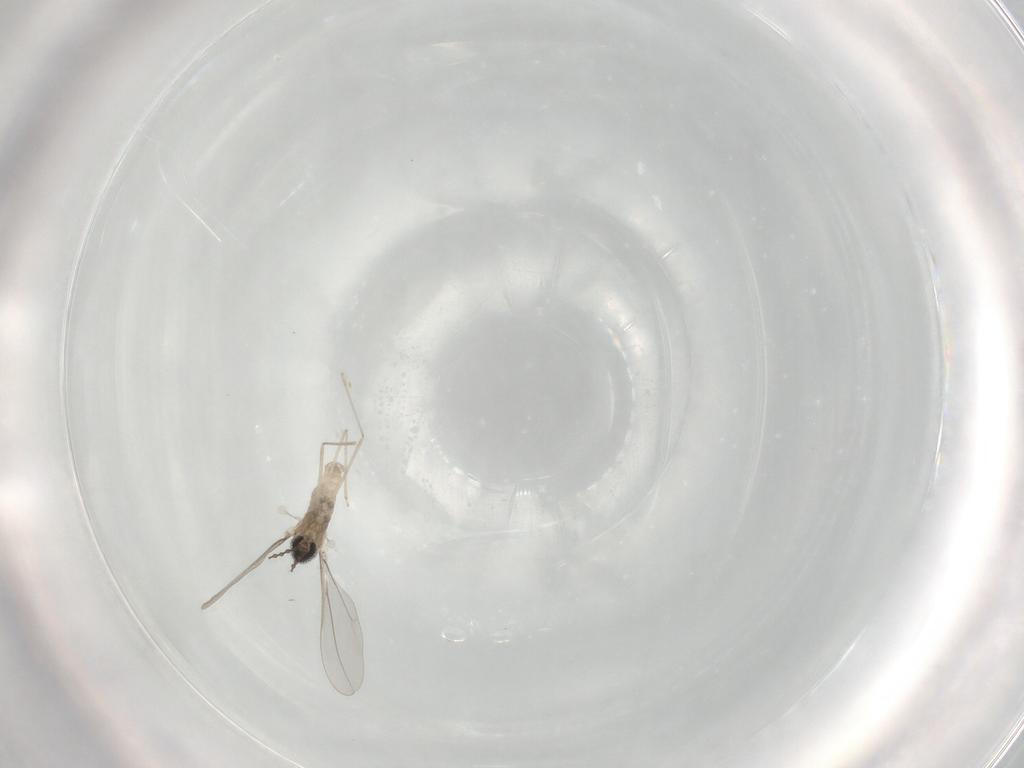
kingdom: Animalia
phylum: Arthropoda
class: Insecta
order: Diptera
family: Cecidomyiidae
